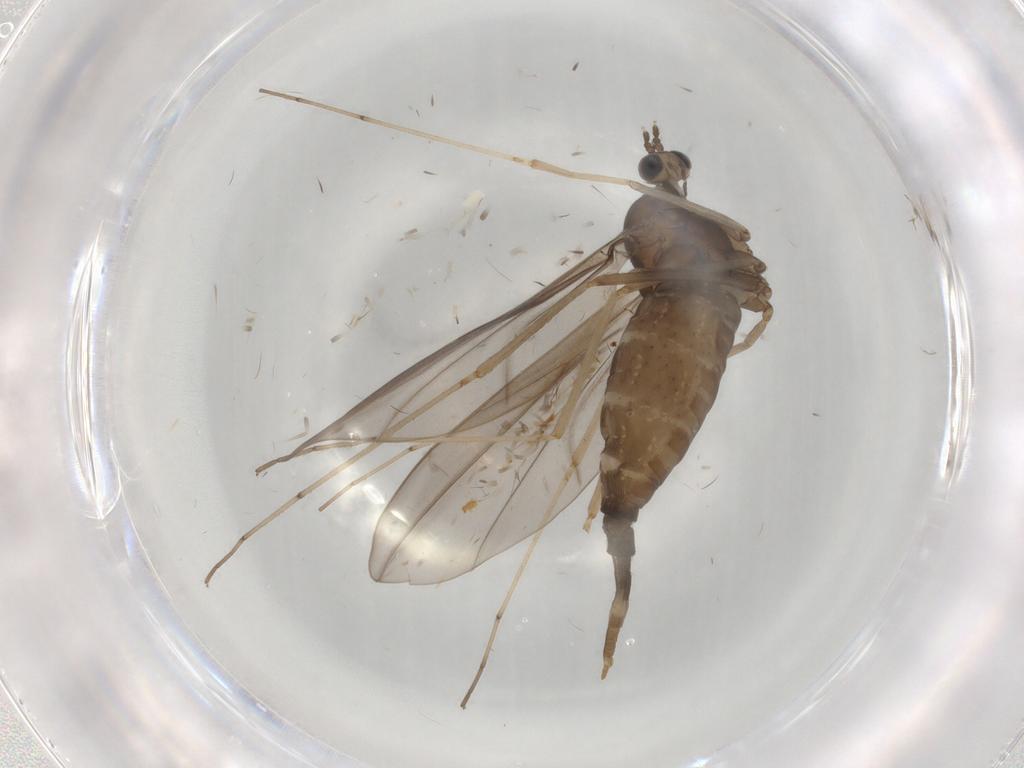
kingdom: Animalia
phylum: Arthropoda
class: Insecta
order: Diptera
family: Cecidomyiidae
